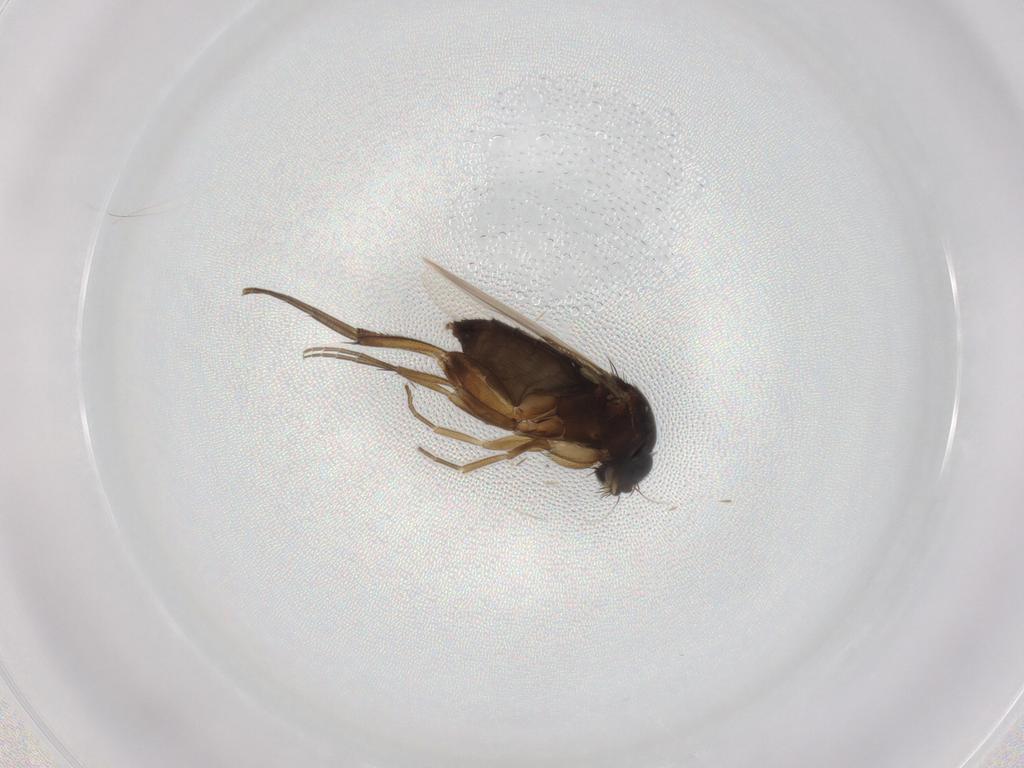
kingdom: Animalia
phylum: Arthropoda
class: Insecta
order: Diptera
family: Phoridae
